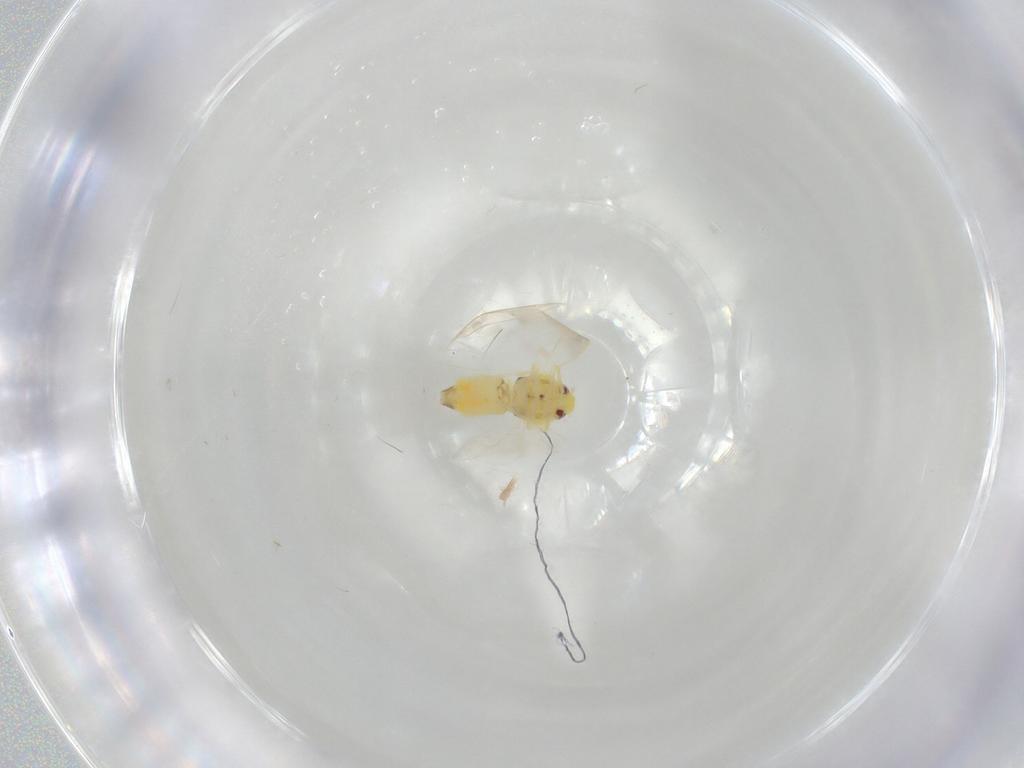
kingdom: Animalia
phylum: Arthropoda
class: Insecta
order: Hemiptera
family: Aleyrodidae
